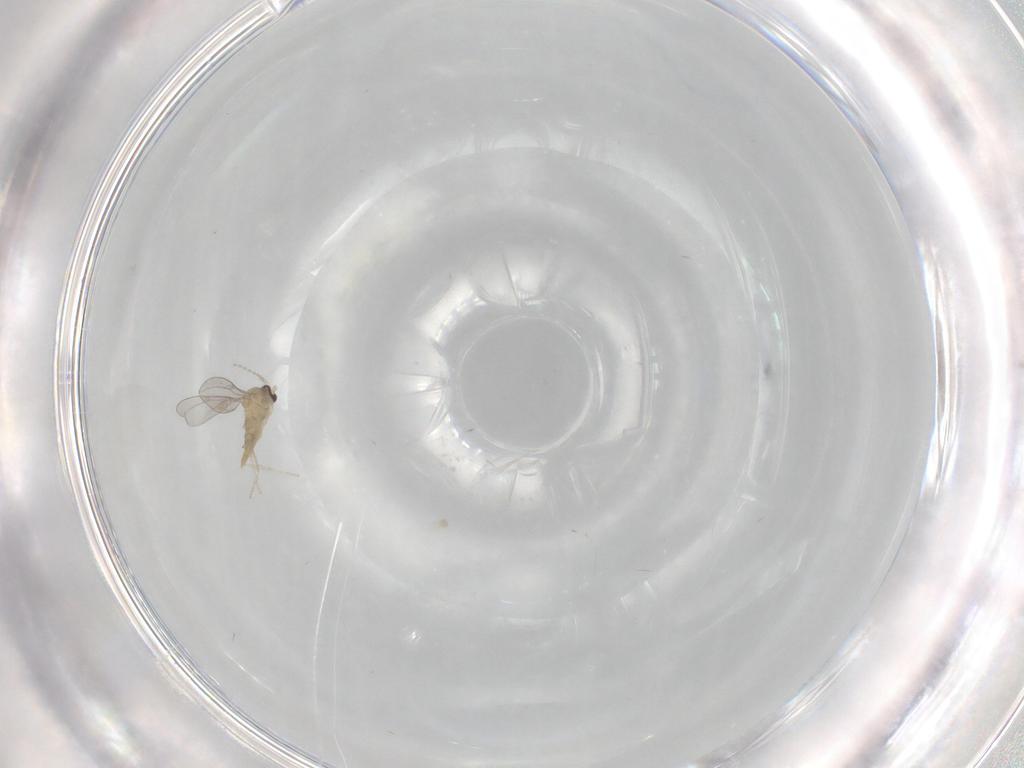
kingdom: Animalia
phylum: Arthropoda
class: Insecta
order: Diptera
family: Cecidomyiidae
